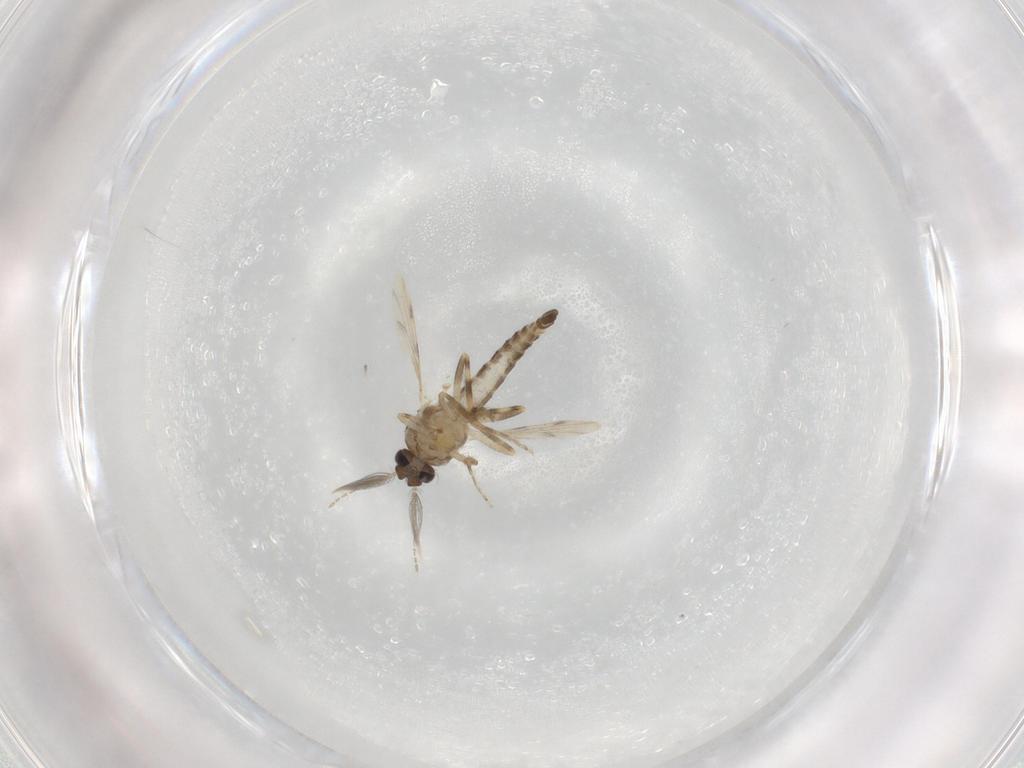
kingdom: Animalia
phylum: Arthropoda
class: Insecta
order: Diptera
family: Ceratopogonidae
